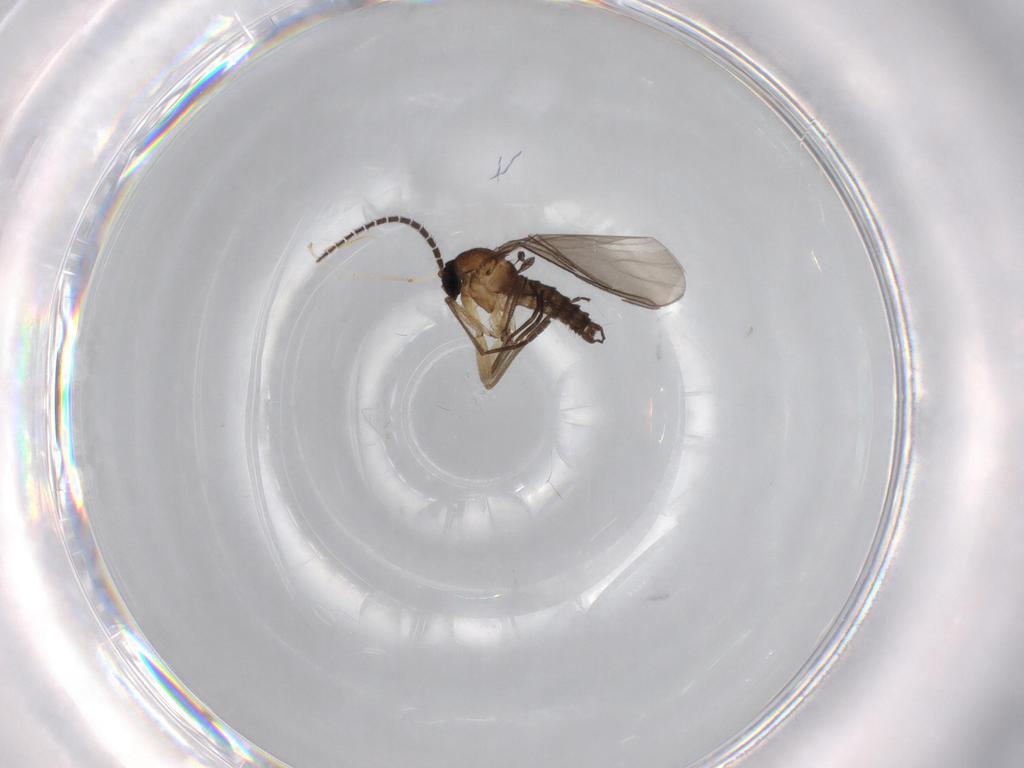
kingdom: Animalia
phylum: Arthropoda
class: Insecta
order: Diptera
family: Sciaridae
